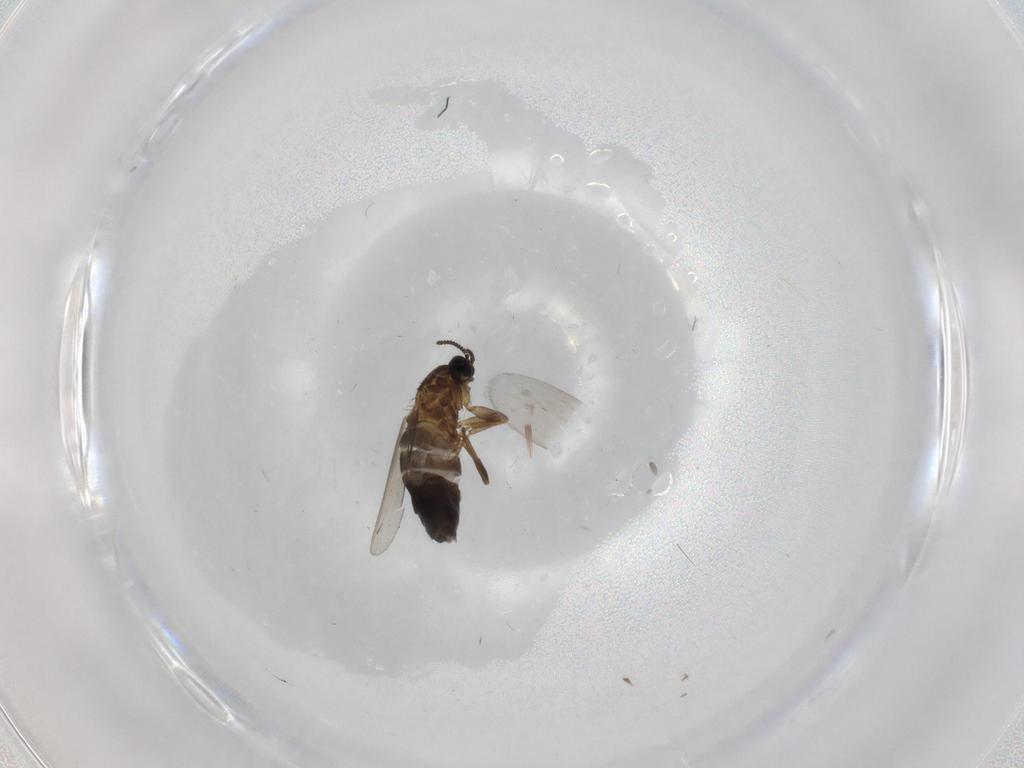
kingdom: Animalia
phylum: Arthropoda
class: Insecta
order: Diptera
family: Scatopsidae
